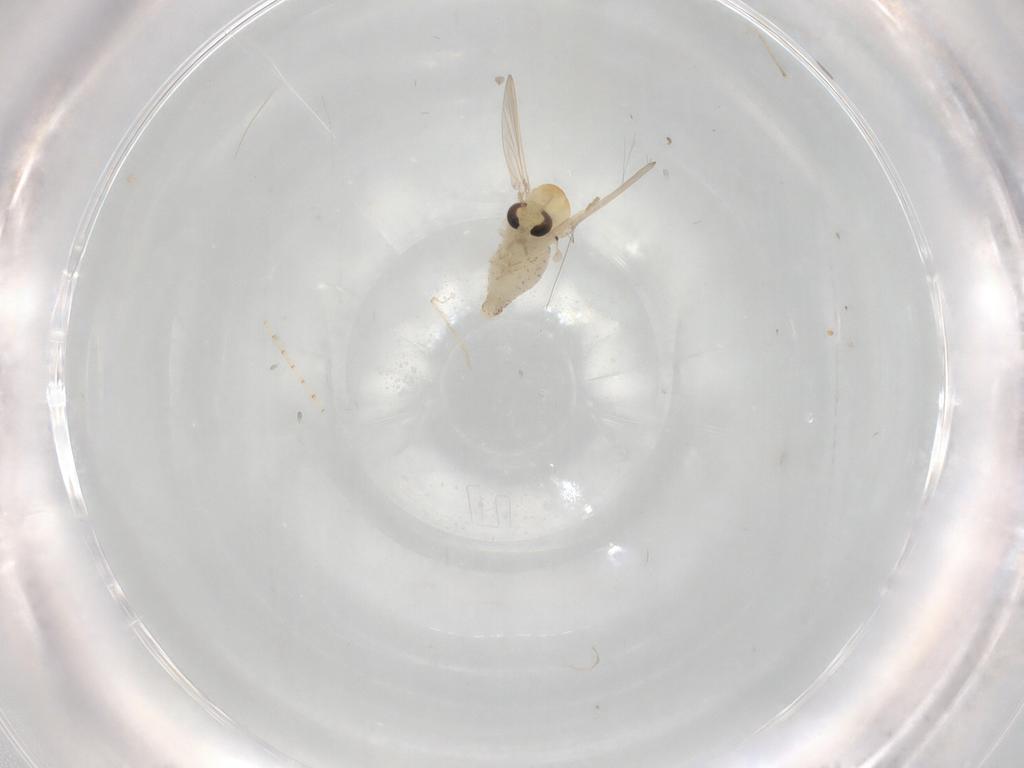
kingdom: Animalia
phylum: Arthropoda
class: Insecta
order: Diptera
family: Chironomidae
